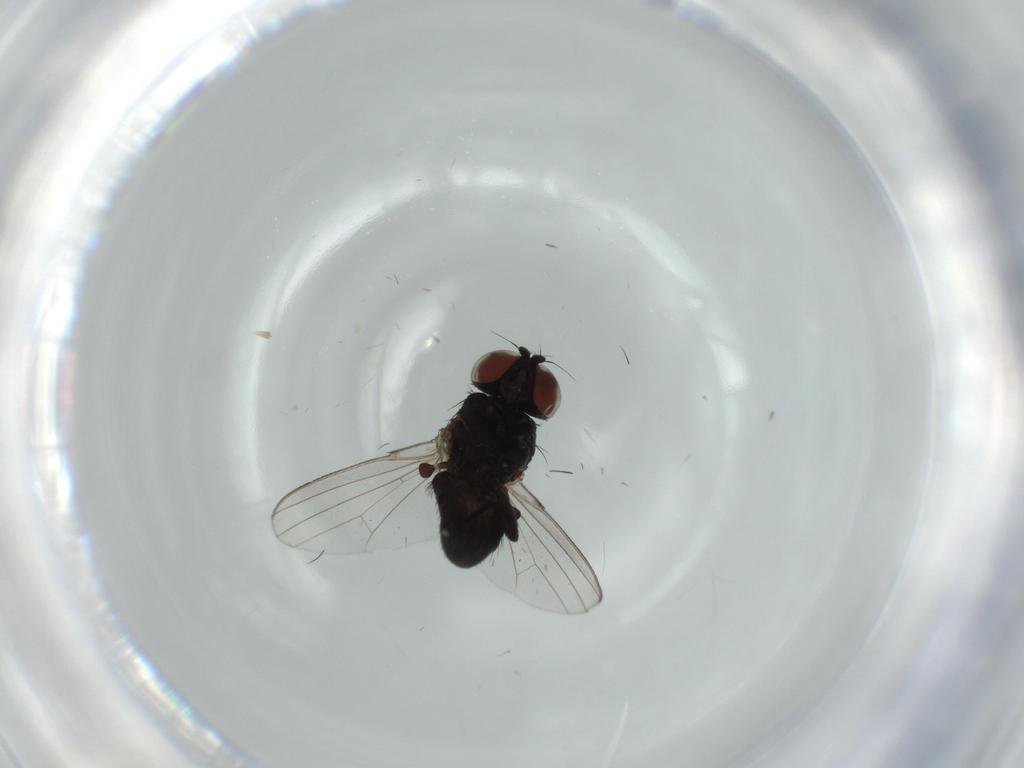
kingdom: Animalia
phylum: Arthropoda
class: Insecta
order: Diptera
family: Milichiidae
